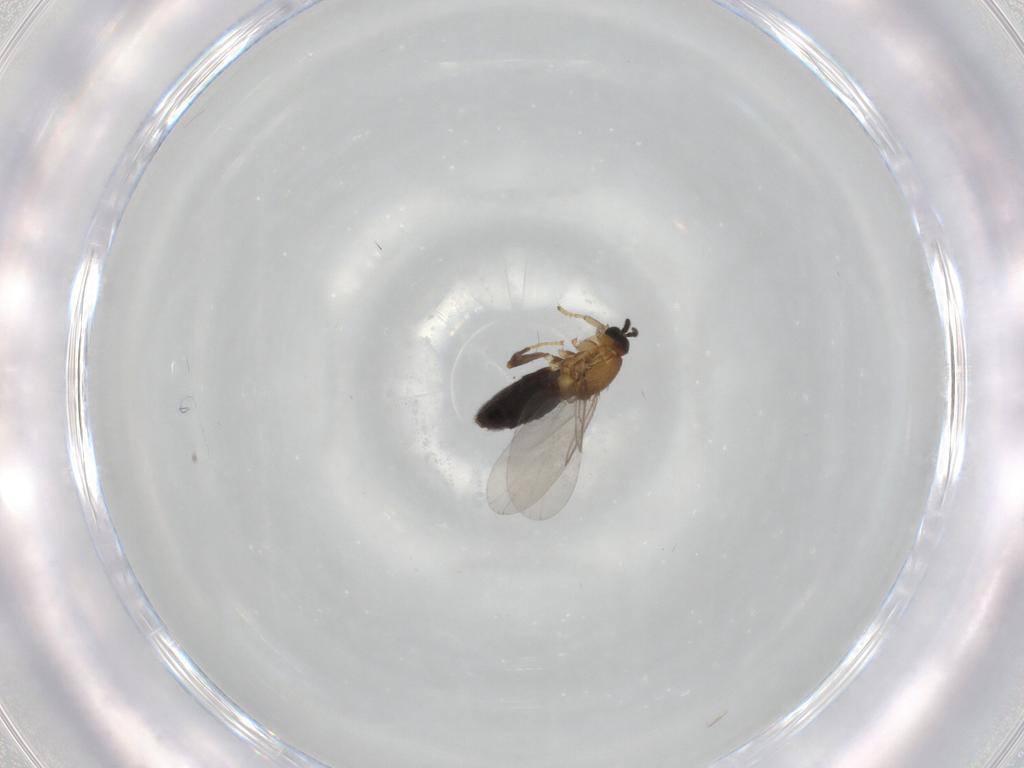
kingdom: Animalia
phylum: Arthropoda
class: Insecta
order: Diptera
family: Scatopsidae
